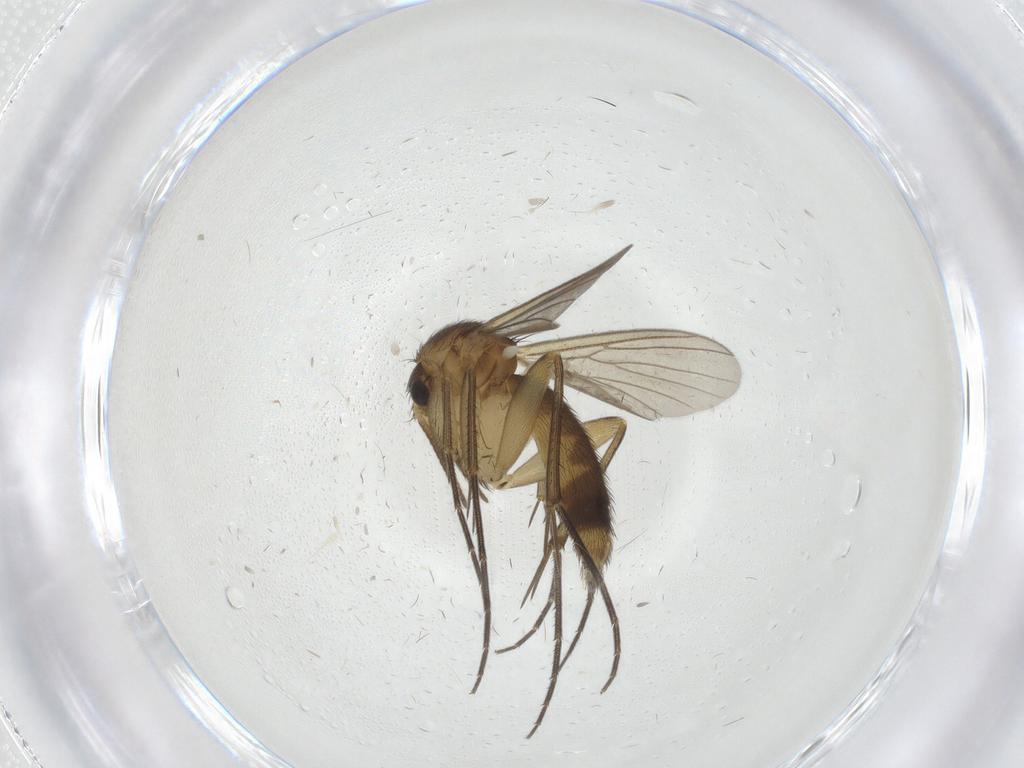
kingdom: Animalia
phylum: Arthropoda
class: Insecta
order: Diptera
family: Mycetophilidae
